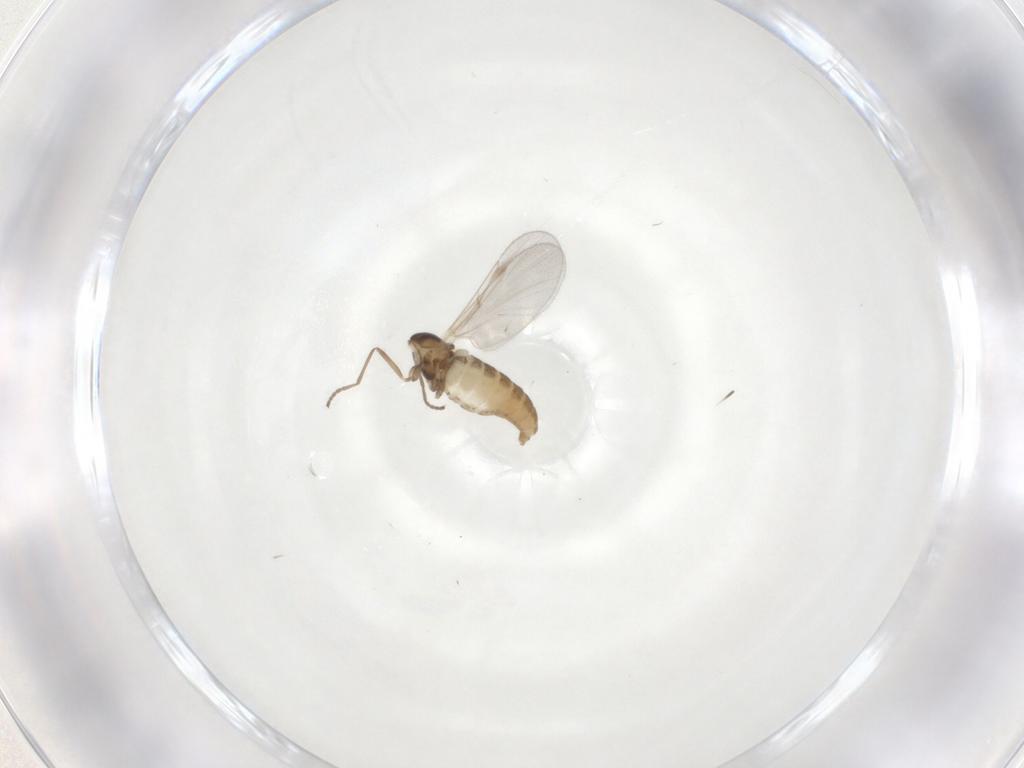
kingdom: Animalia
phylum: Arthropoda
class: Insecta
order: Diptera
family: Cecidomyiidae
